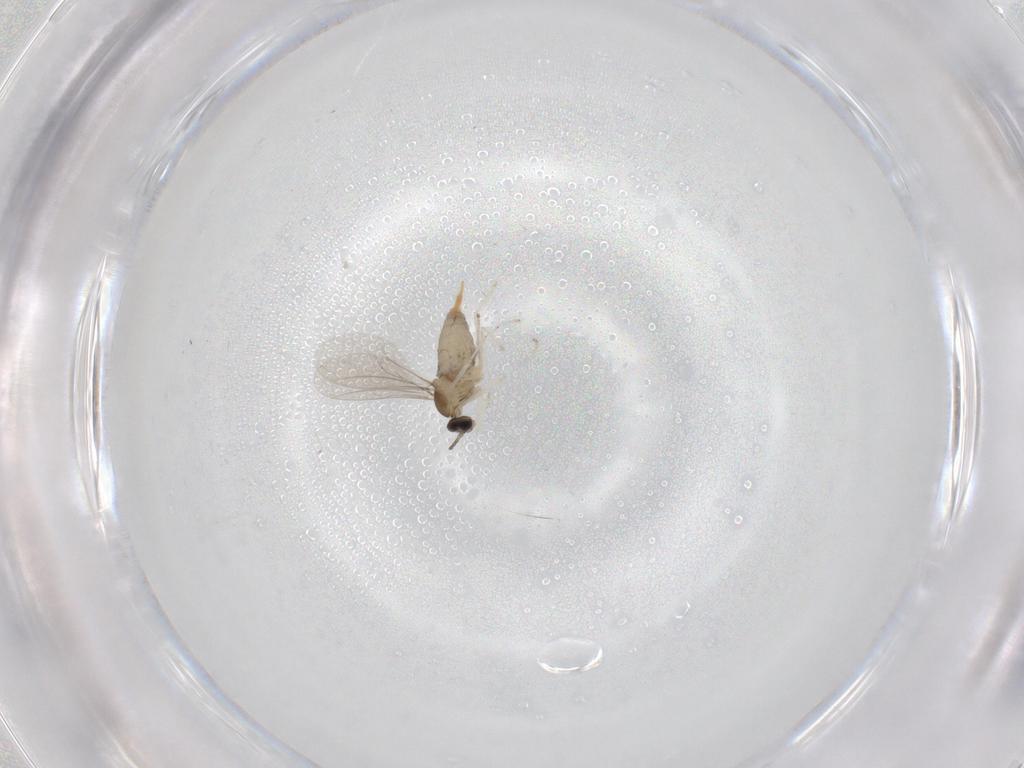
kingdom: Animalia
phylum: Arthropoda
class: Insecta
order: Diptera
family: Cecidomyiidae
